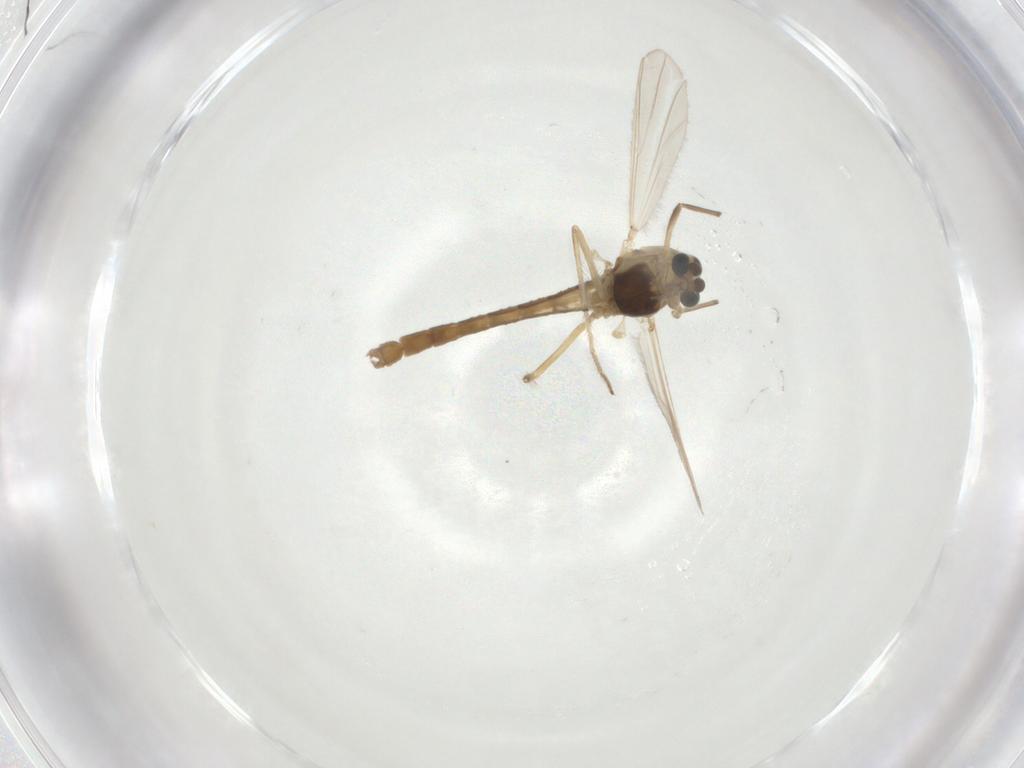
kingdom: Animalia
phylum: Arthropoda
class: Insecta
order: Diptera
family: Chironomidae
